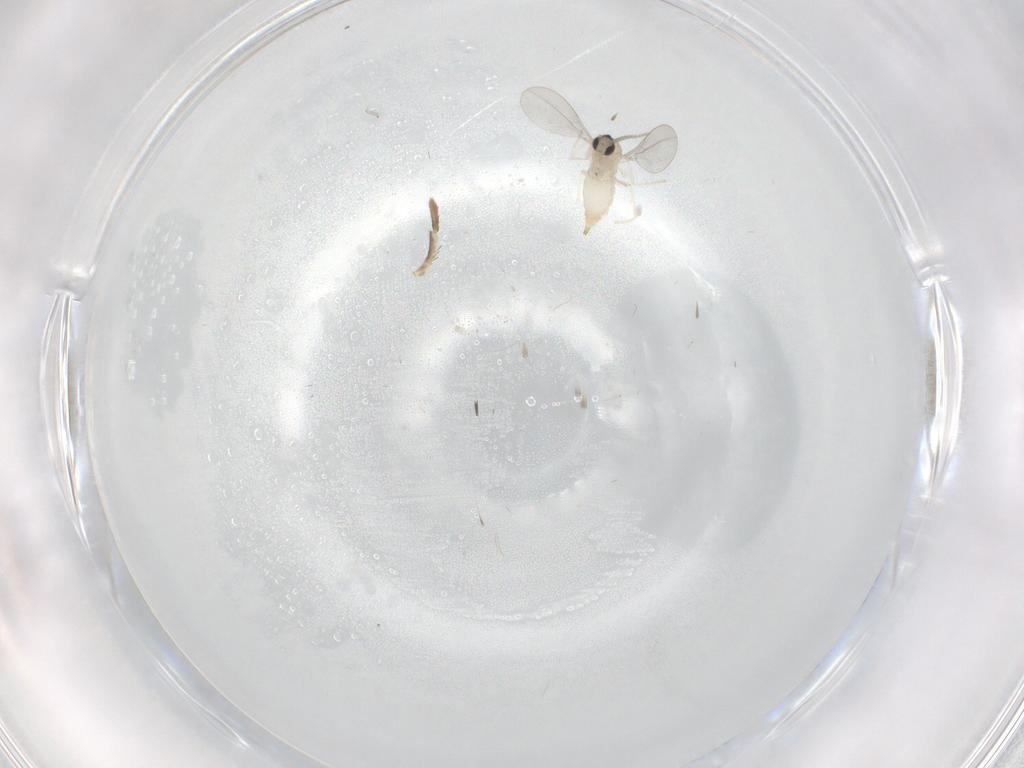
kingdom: Animalia
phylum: Arthropoda
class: Insecta
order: Diptera
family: Cecidomyiidae
